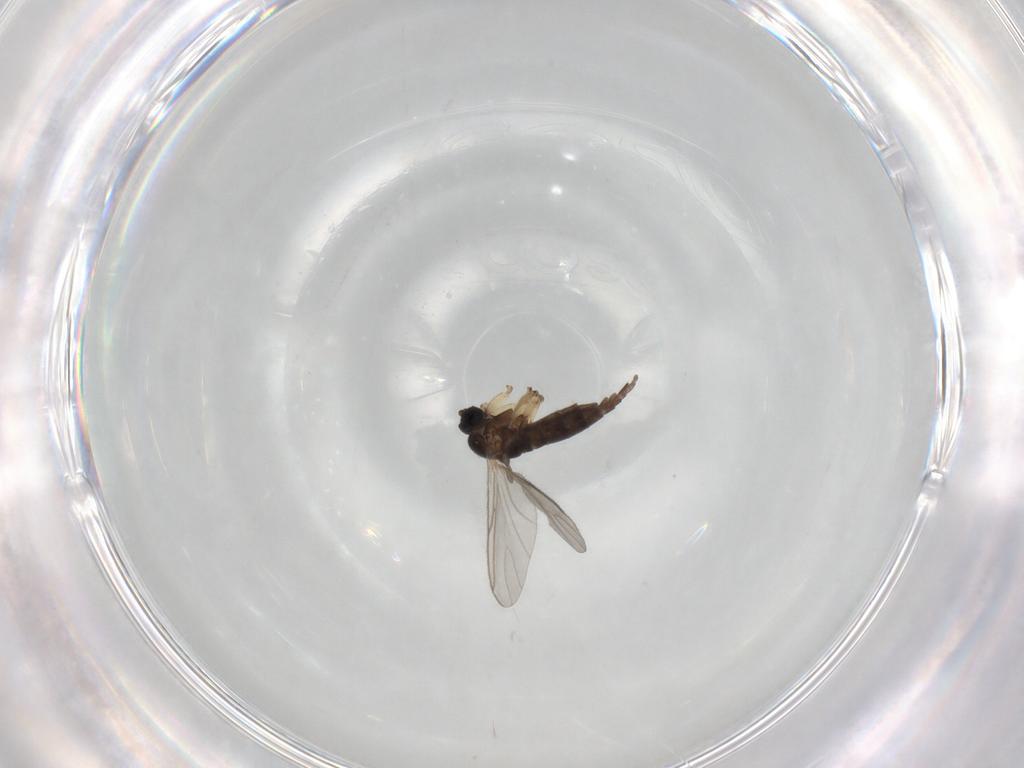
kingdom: Animalia
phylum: Arthropoda
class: Insecta
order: Diptera
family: Sciaridae
